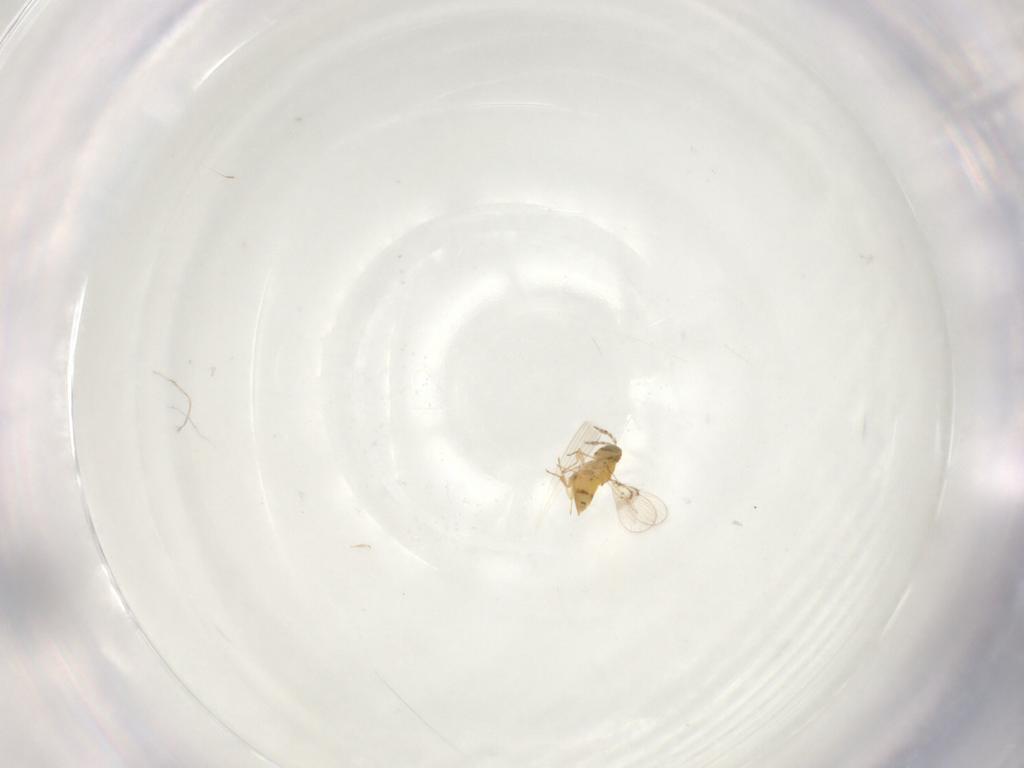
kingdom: Animalia
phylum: Arthropoda
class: Insecta
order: Hymenoptera
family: Trichogrammatidae
